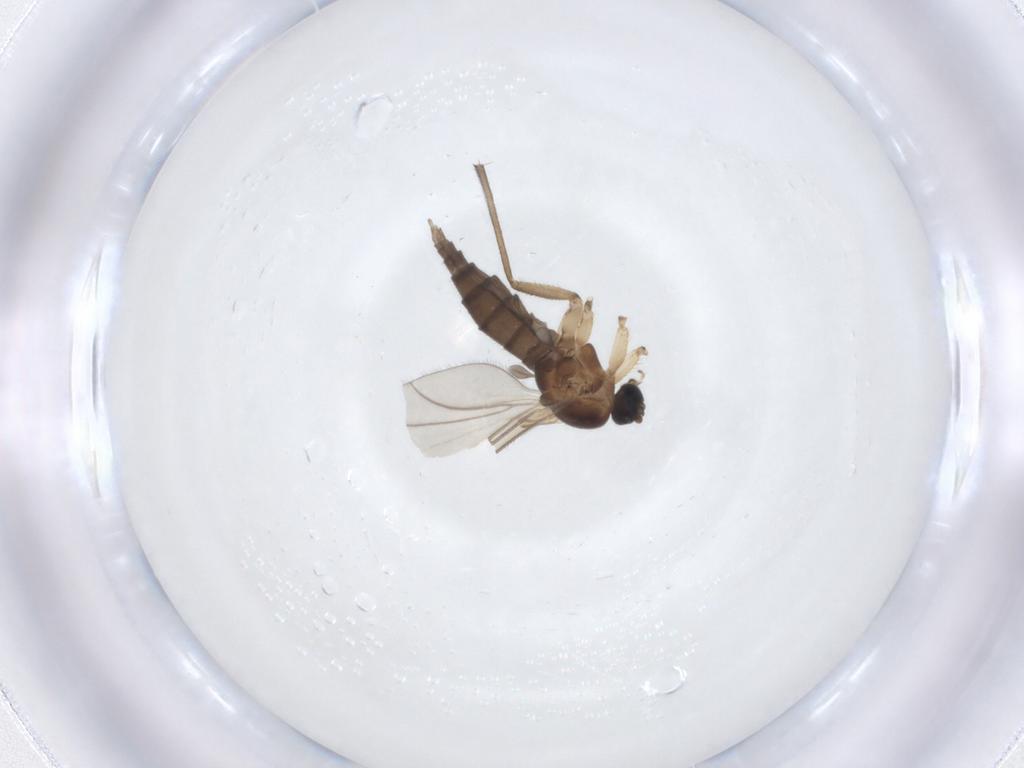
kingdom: Animalia
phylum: Arthropoda
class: Insecta
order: Diptera
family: Sciaridae
